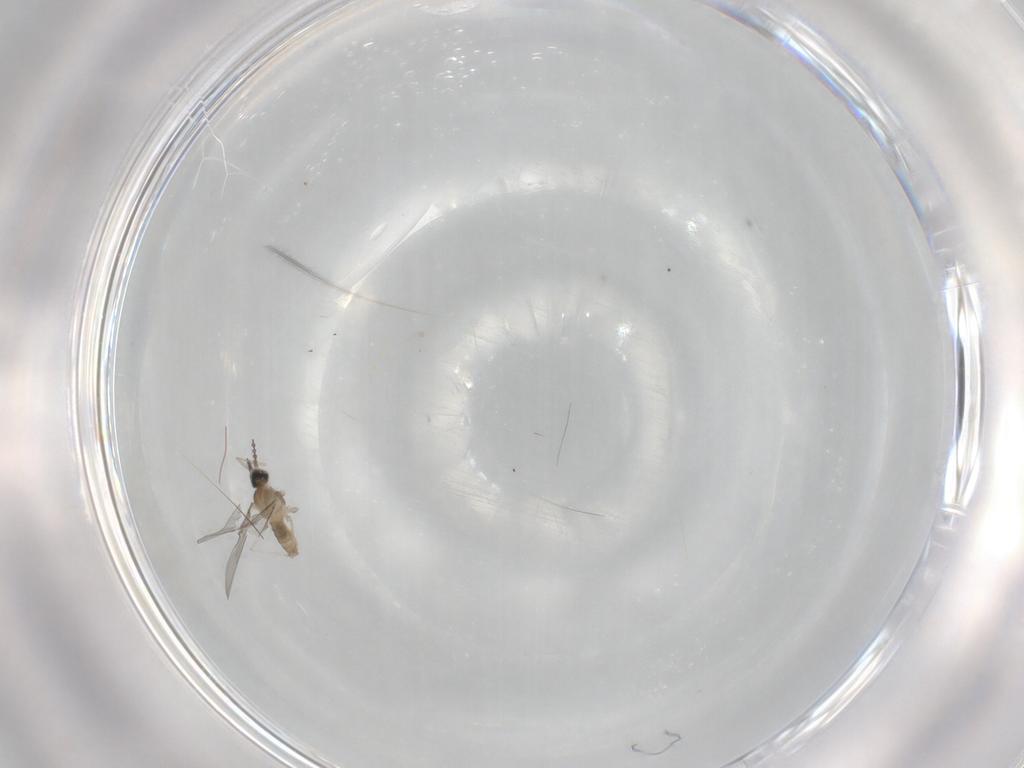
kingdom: Animalia
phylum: Arthropoda
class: Insecta
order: Diptera
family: Cecidomyiidae
